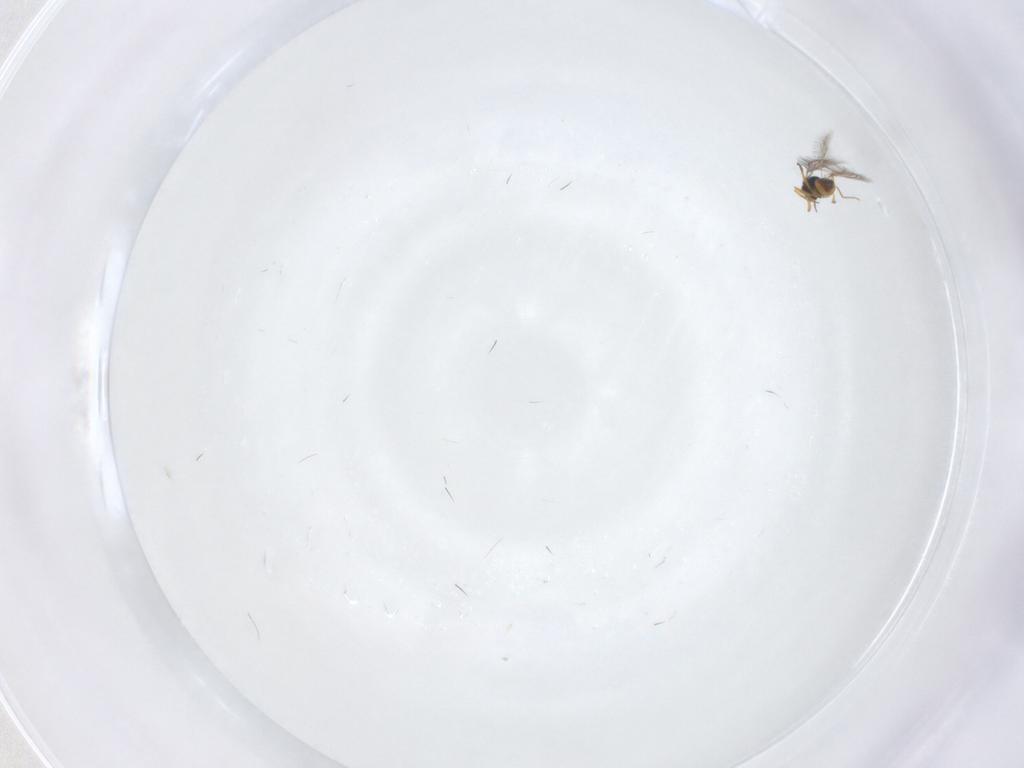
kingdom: Animalia
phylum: Arthropoda
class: Insecta
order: Hymenoptera
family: Mymaridae
